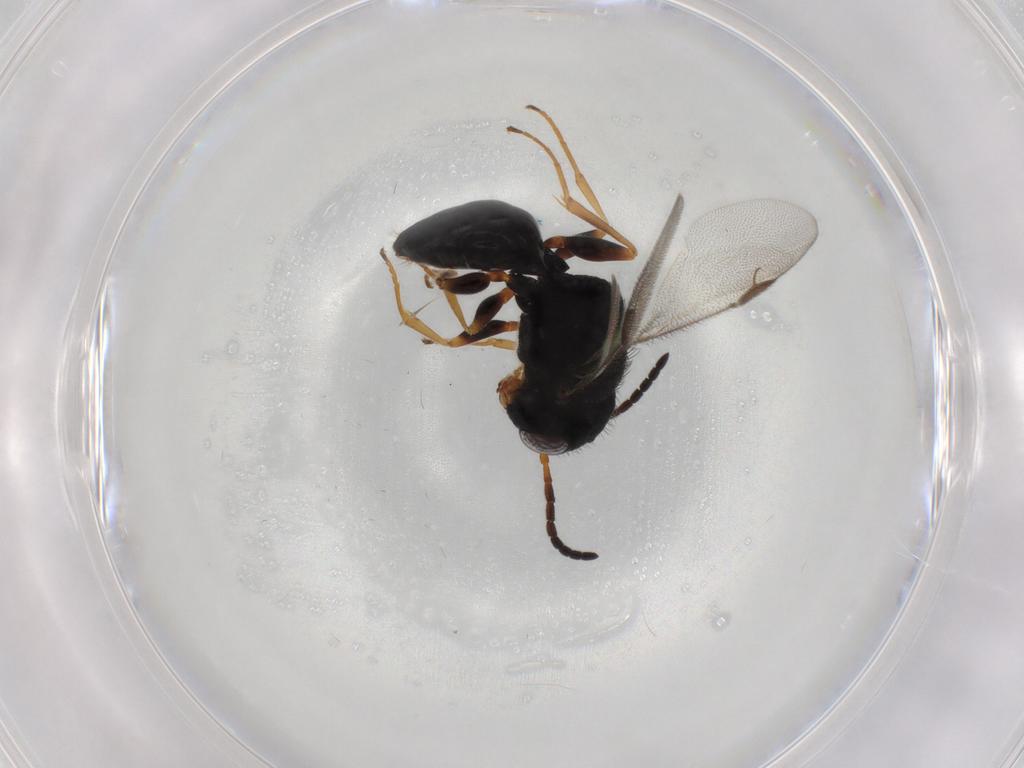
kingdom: Animalia
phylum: Arthropoda
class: Insecta
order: Hymenoptera
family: Dryinidae
